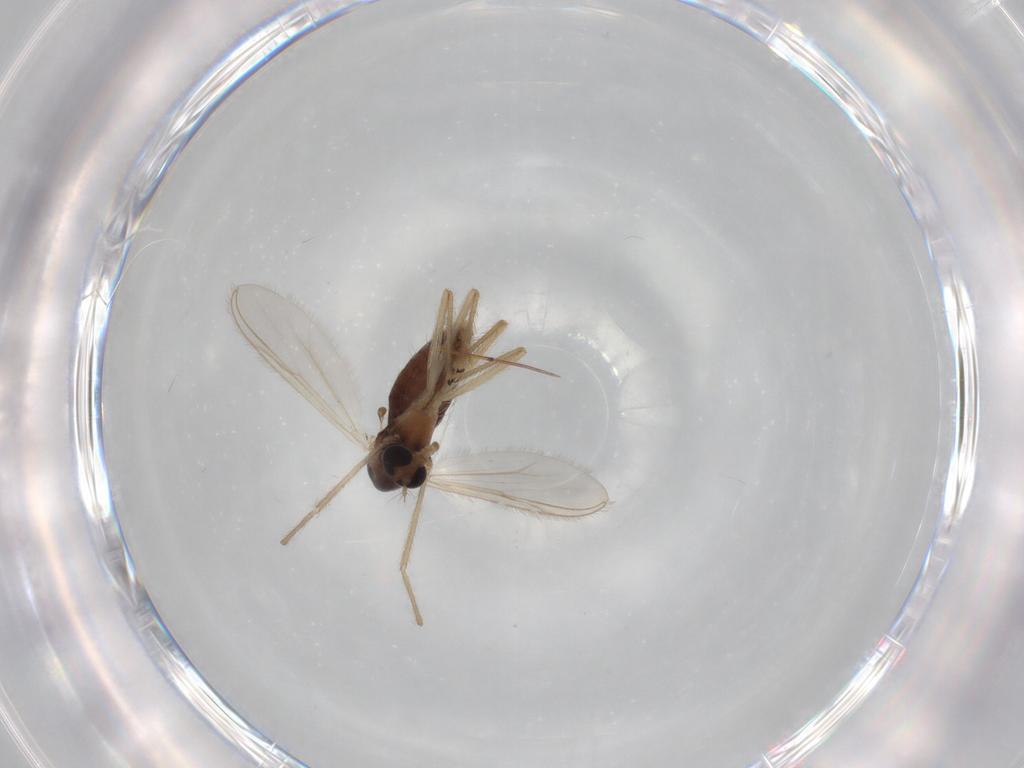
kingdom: Animalia
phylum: Arthropoda
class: Insecta
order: Diptera
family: Chironomidae
